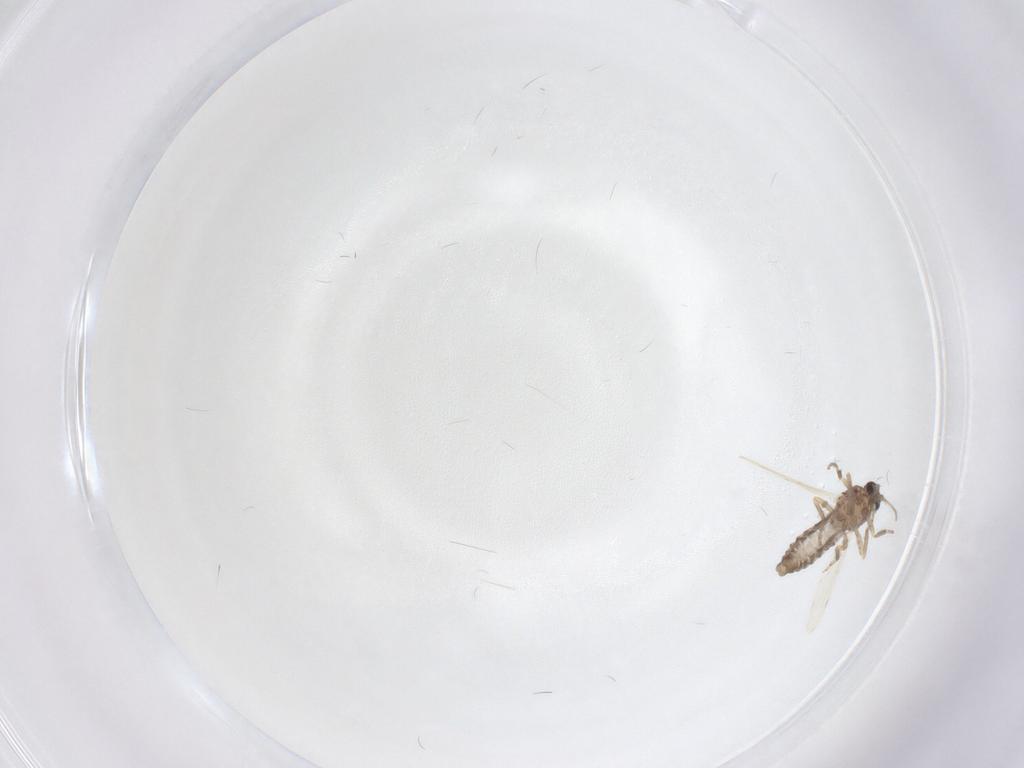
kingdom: Animalia
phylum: Arthropoda
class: Insecta
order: Diptera
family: Ceratopogonidae
